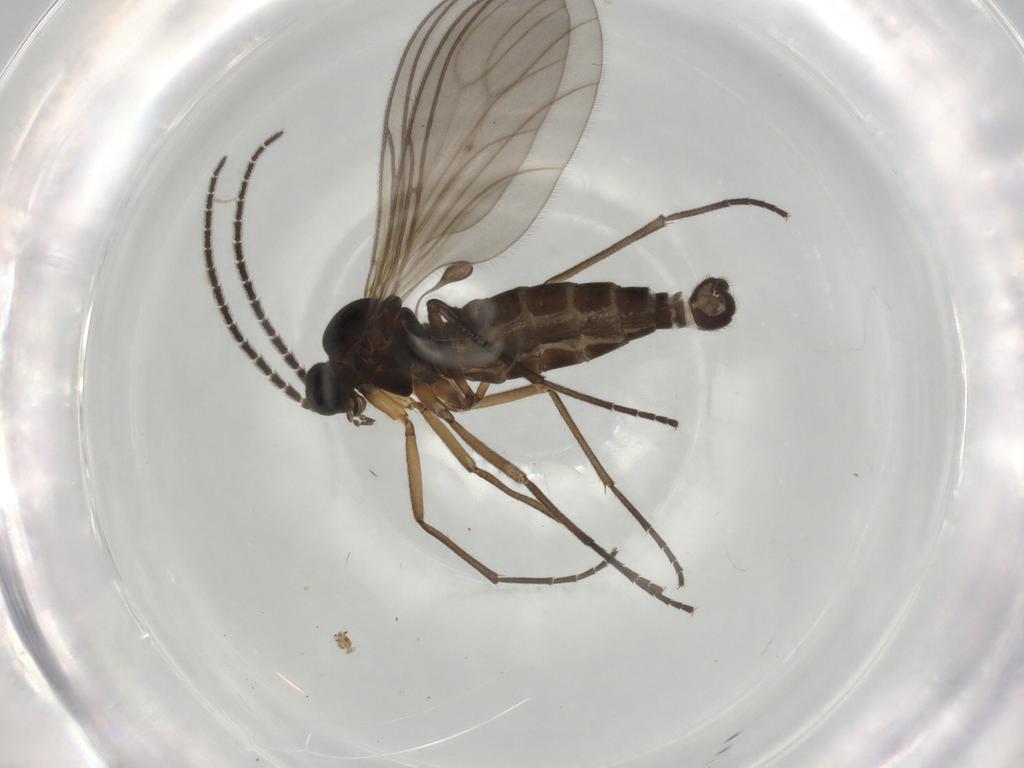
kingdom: Animalia
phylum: Arthropoda
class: Insecta
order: Diptera
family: Sciaridae
